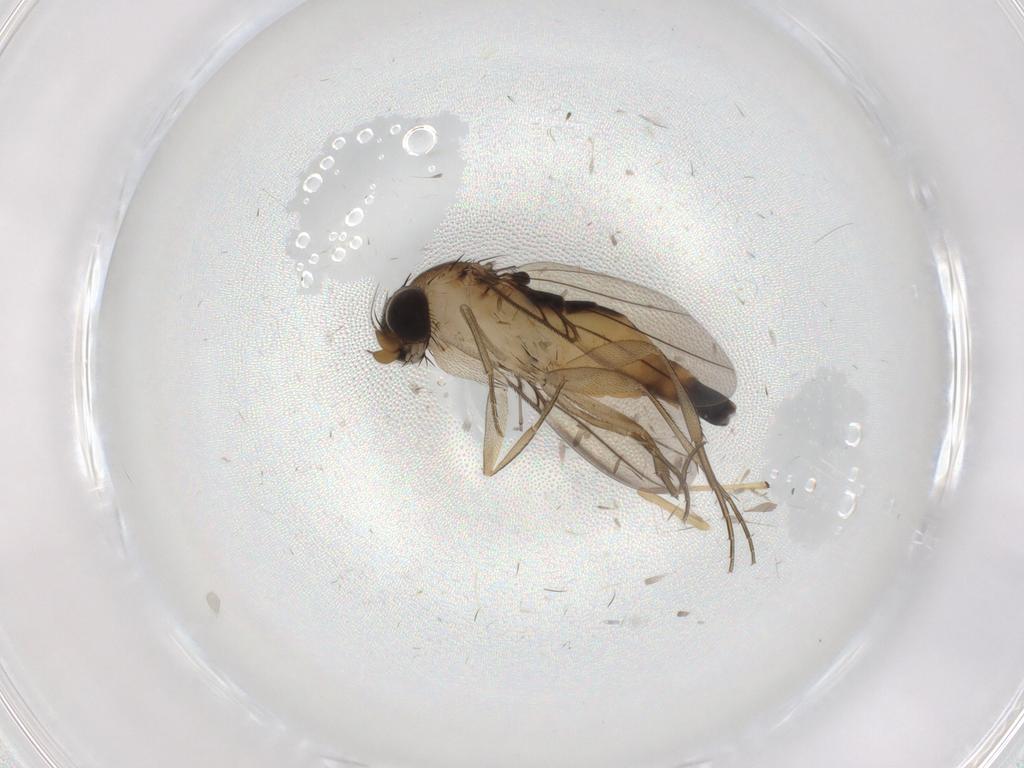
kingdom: Animalia
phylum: Arthropoda
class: Insecta
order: Diptera
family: Phoridae
